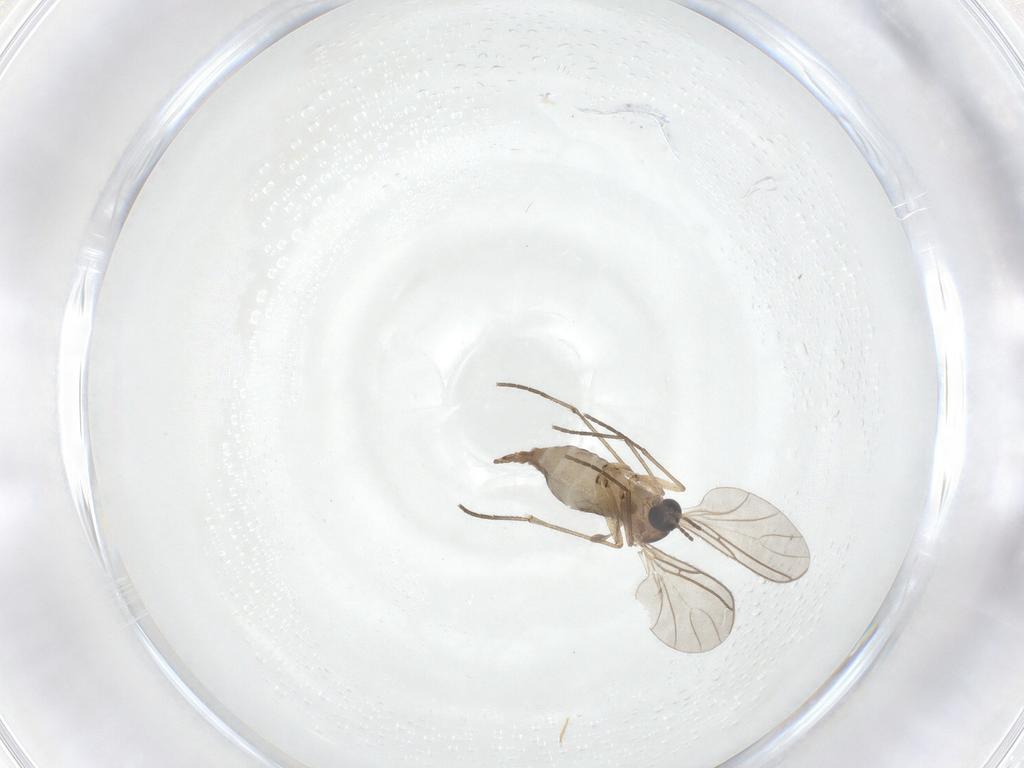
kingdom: Animalia
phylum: Arthropoda
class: Insecta
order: Diptera
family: Sciaridae
